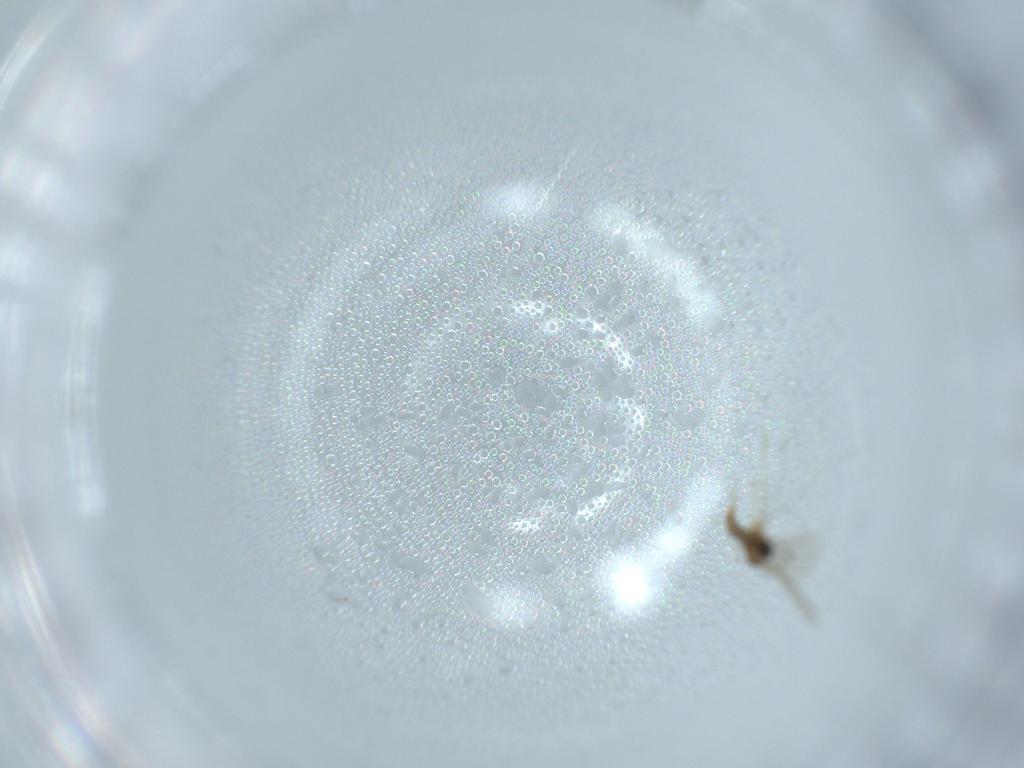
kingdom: Animalia
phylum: Arthropoda
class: Insecta
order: Diptera
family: Cecidomyiidae
